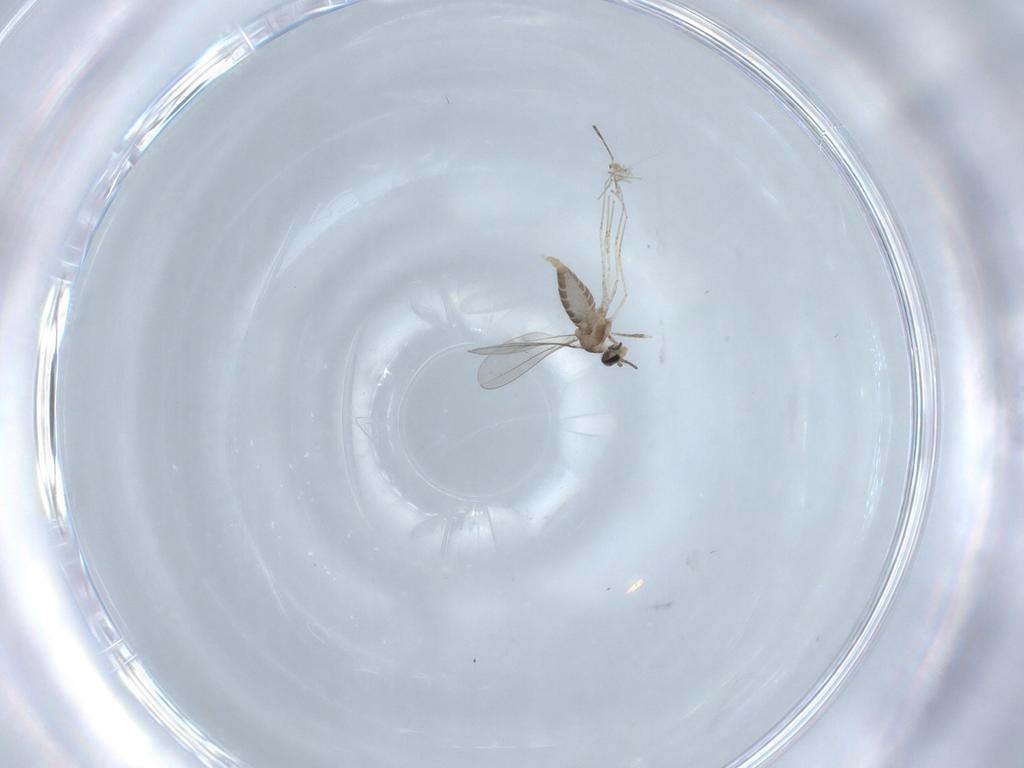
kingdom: Animalia
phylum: Arthropoda
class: Insecta
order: Diptera
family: Cecidomyiidae
